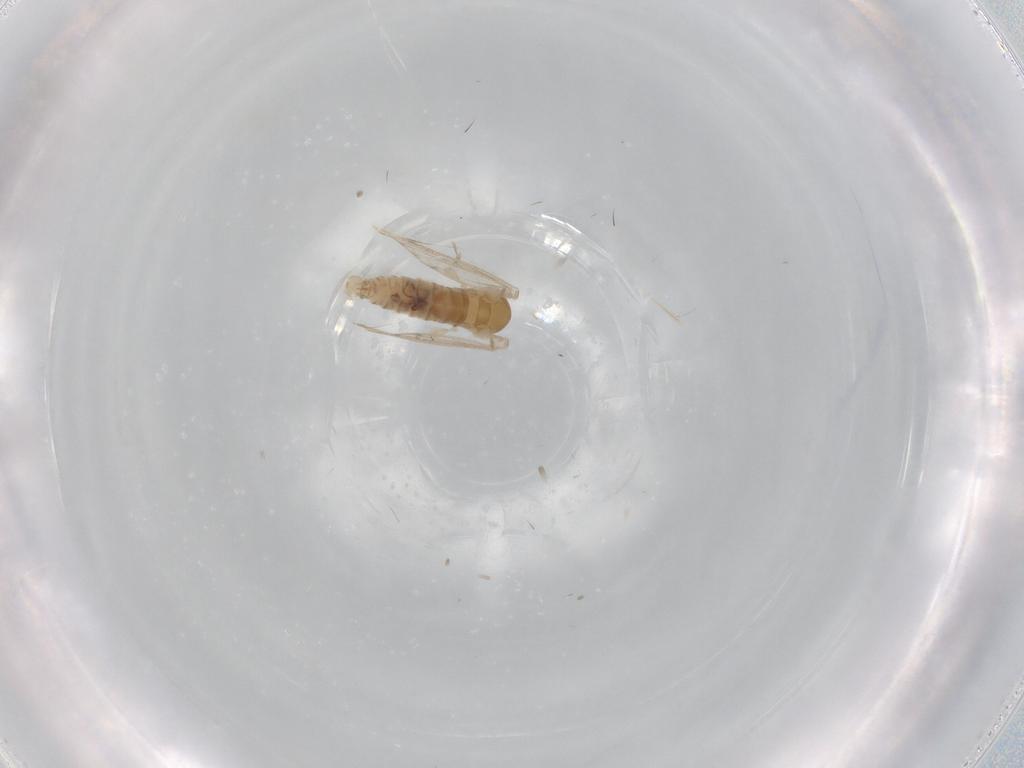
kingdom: Animalia
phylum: Arthropoda
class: Insecta
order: Diptera
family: Psychodidae
